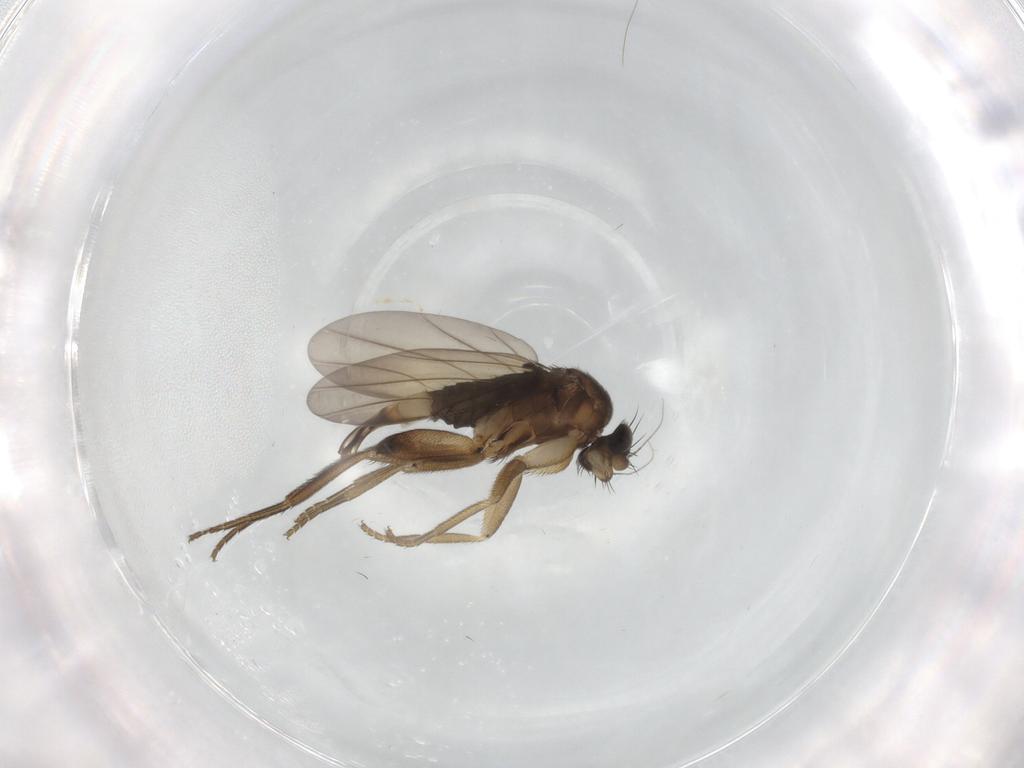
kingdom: Animalia
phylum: Arthropoda
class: Insecta
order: Diptera
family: Phoridae
